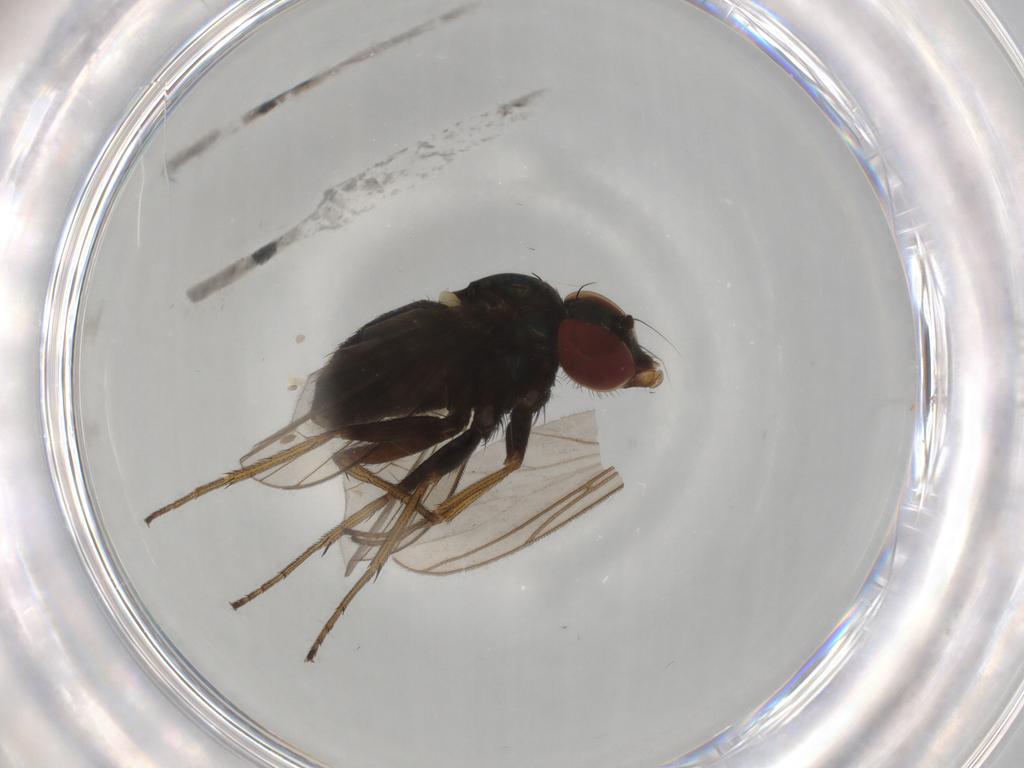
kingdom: Animalia
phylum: Arthropoda
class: Insecta
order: Diptera
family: Sciaridae
